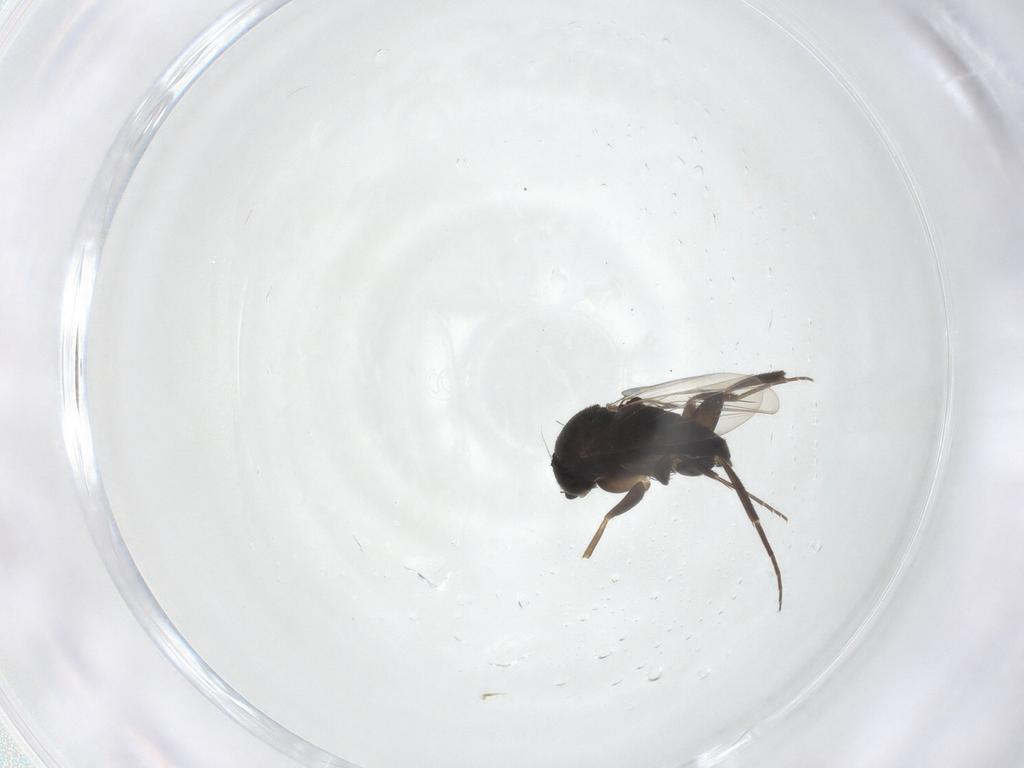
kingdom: Animalia
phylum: Arthropoda
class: Insecta
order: Diptera
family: Phoridae
